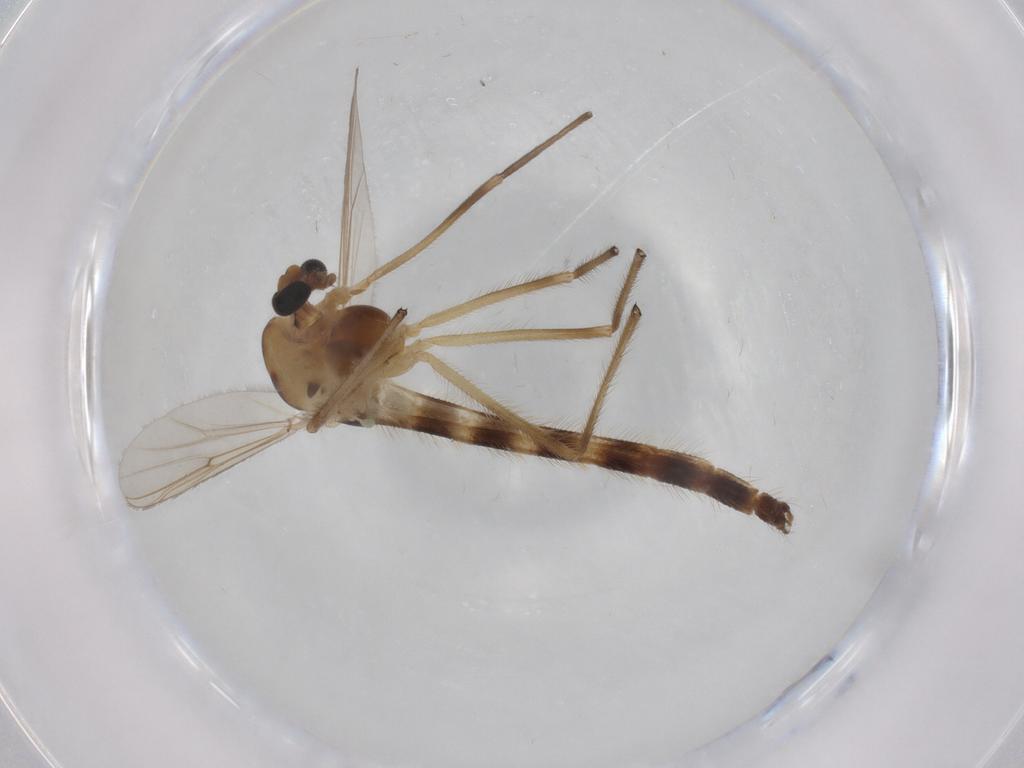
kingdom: Animalia
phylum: Arthropoda
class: Insecta
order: Diptera
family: Chironomidae
